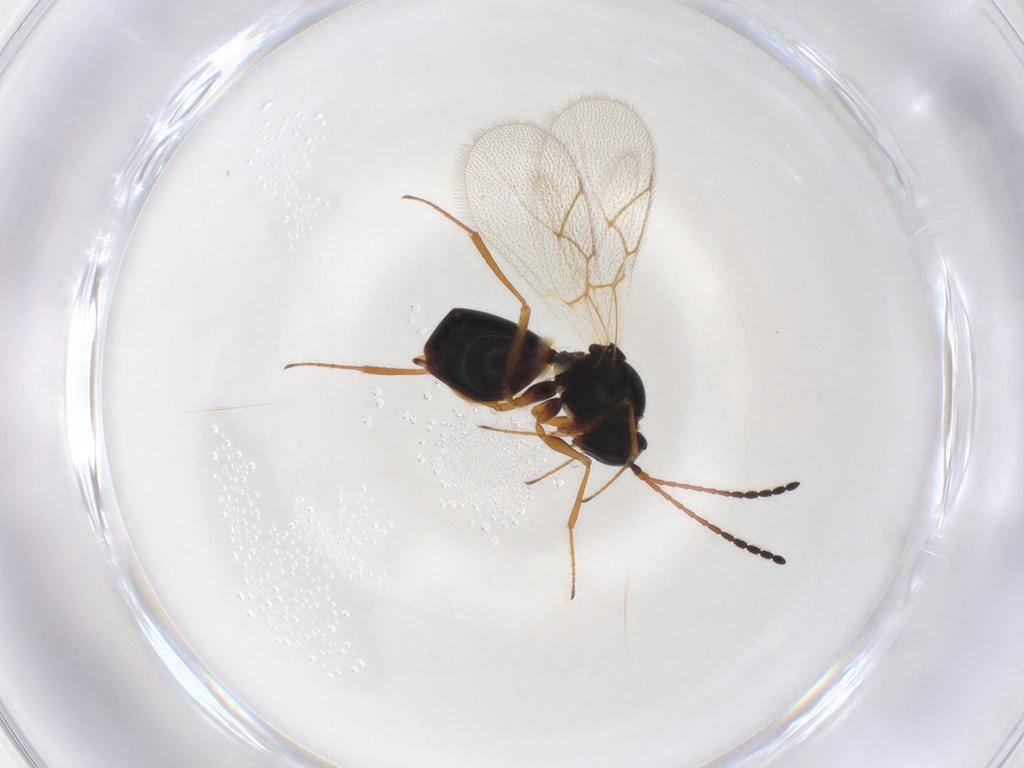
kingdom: Animalia
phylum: Arthropoda
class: Insecta
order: Hymenoptera
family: Figitidae
